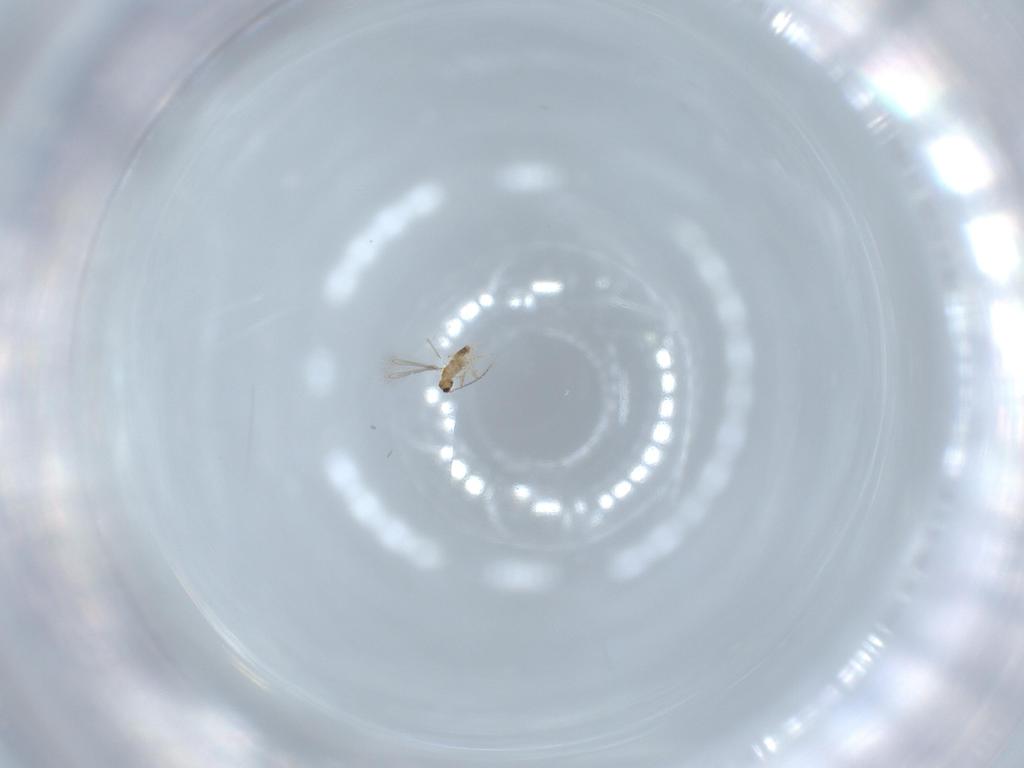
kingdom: Animalia
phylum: Arthropoda
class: Insecta
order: Hymenoptera
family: Mymaridae
